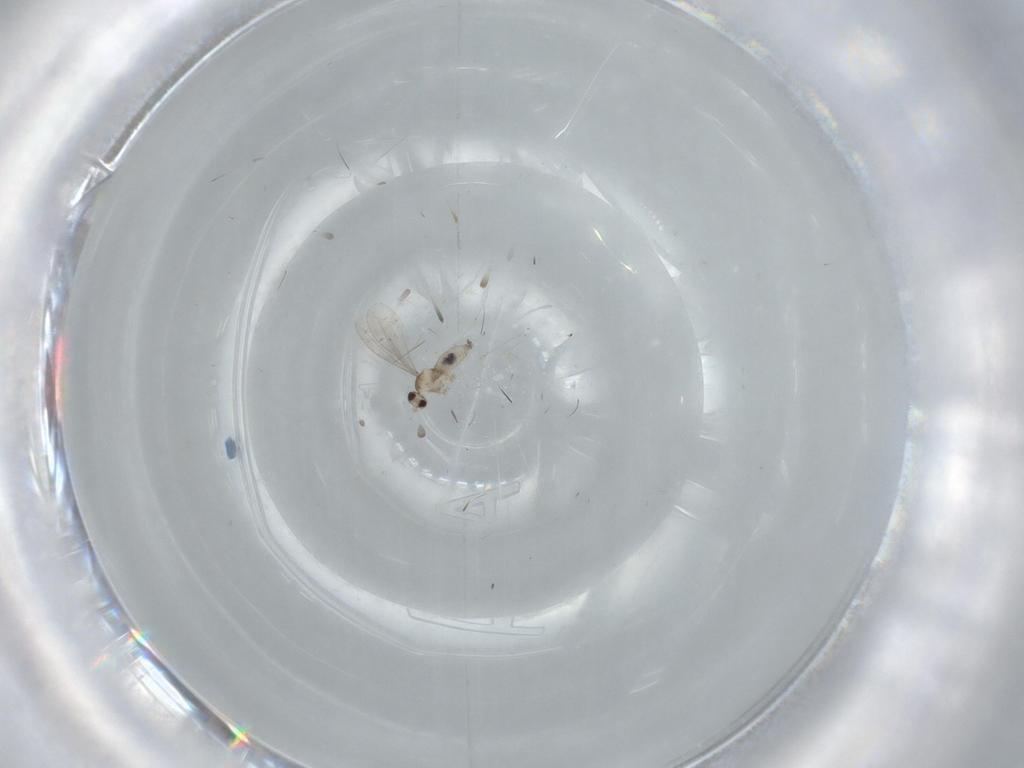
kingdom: Animalia
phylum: Arthropoda
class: Insecta
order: Diptera
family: Cecidomyiidae
